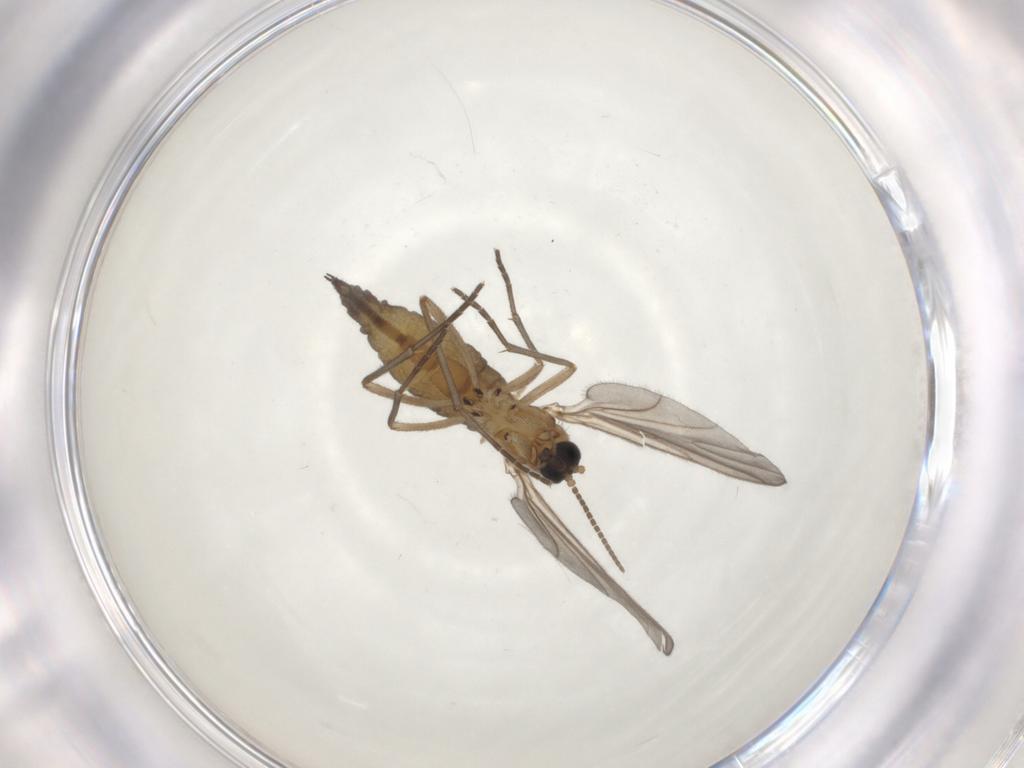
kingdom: Animalia
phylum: Arthropoda
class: Insecta
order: Diptera
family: Sciaridae
